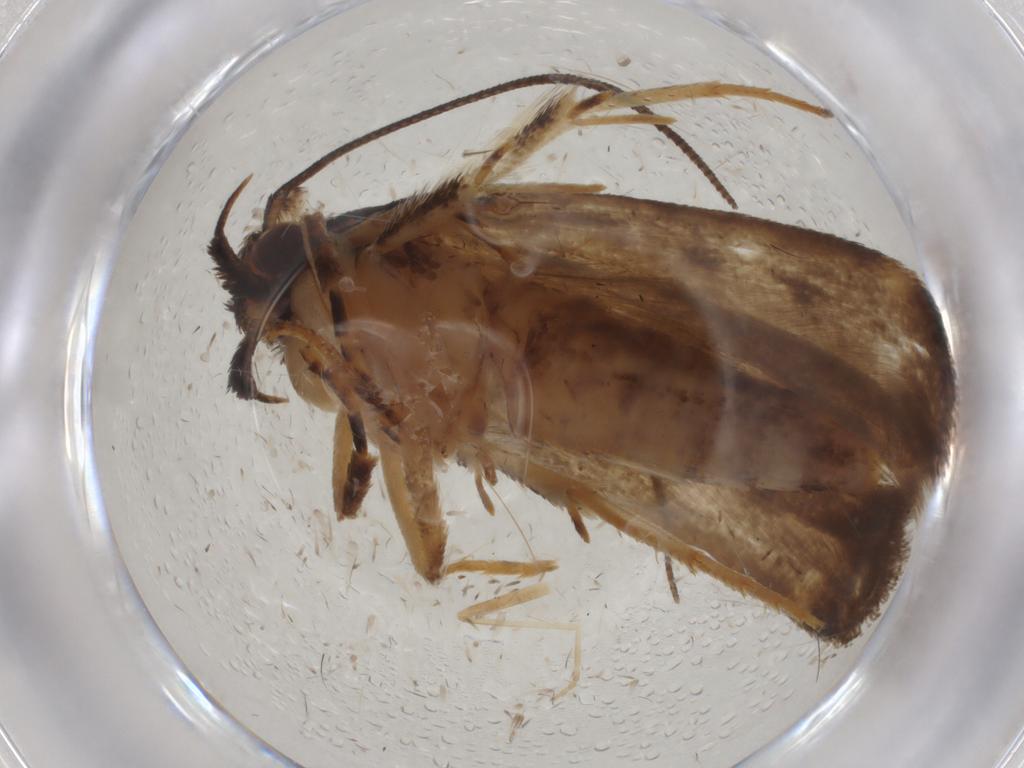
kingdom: Animalia
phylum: Arthropoda
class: Insecta
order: Lepidoptera
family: Gelechiidae
